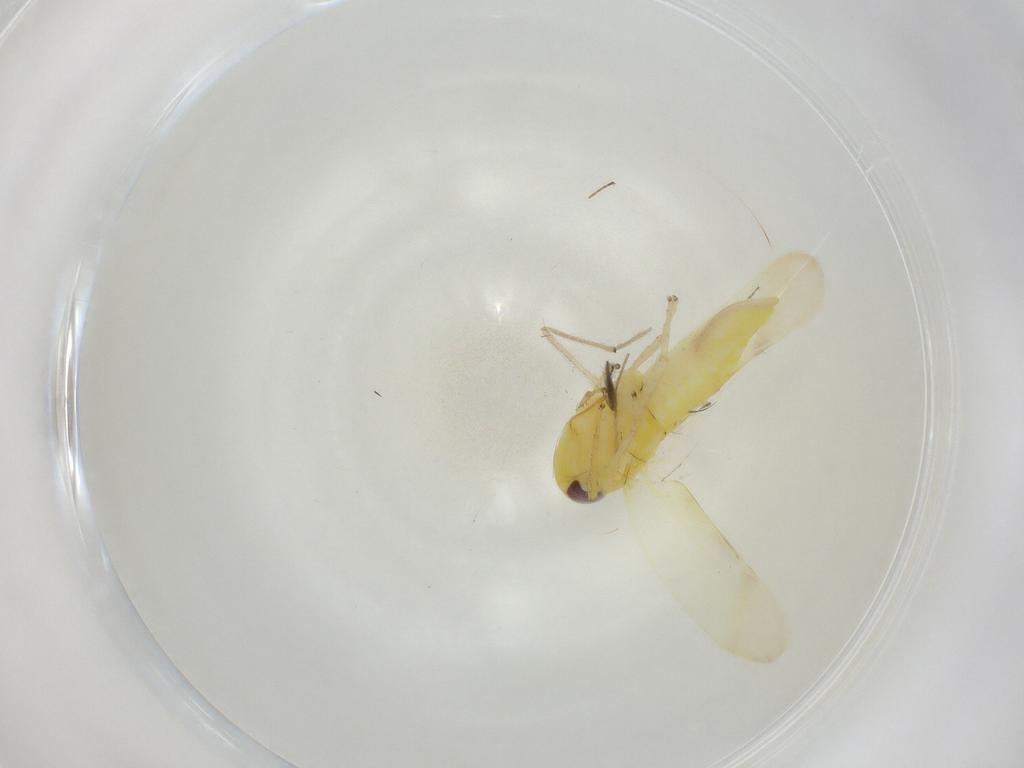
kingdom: Animalia
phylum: Arthropoda
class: Insecta
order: Hemiptera
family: Cicadellidae
